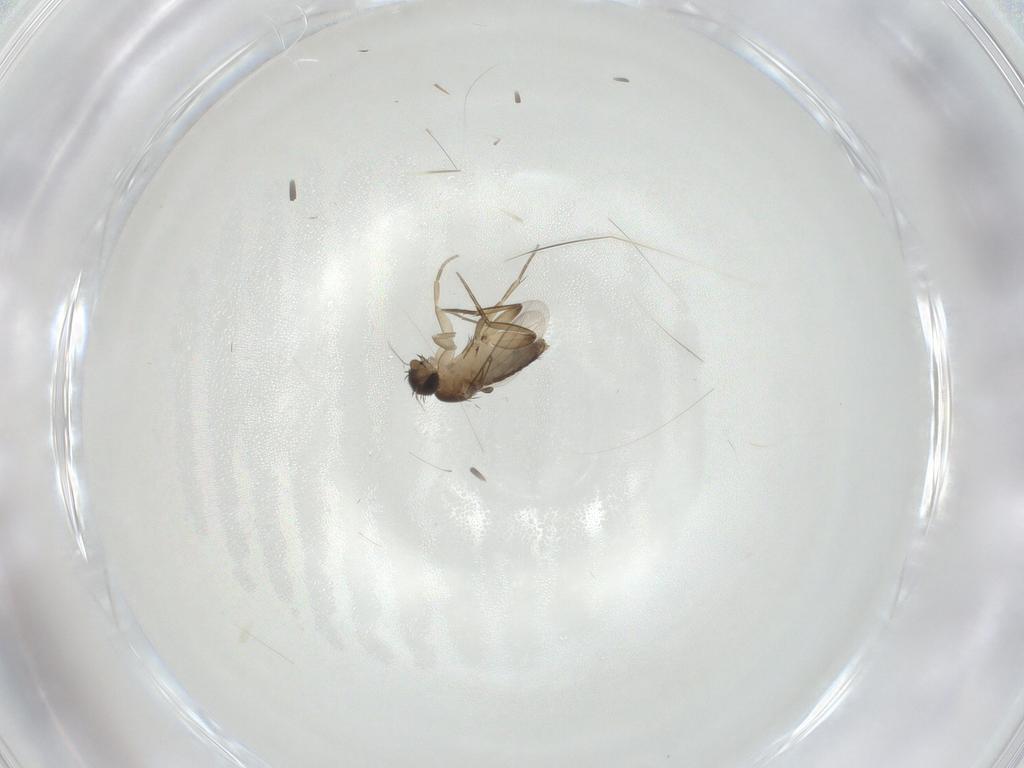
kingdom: Animalia
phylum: Arthropoda
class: Insecta
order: Diptera
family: Phoridae
